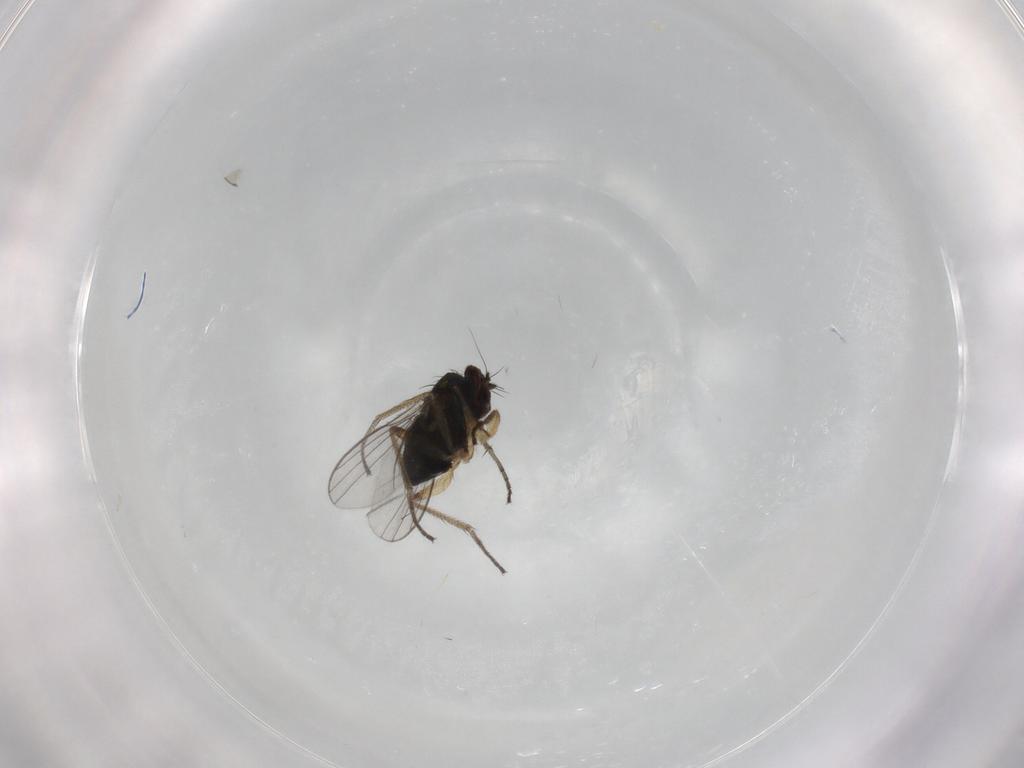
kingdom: Animalia
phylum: Arthropoda
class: Insecta
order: Diptera
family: Dolichopodidae
